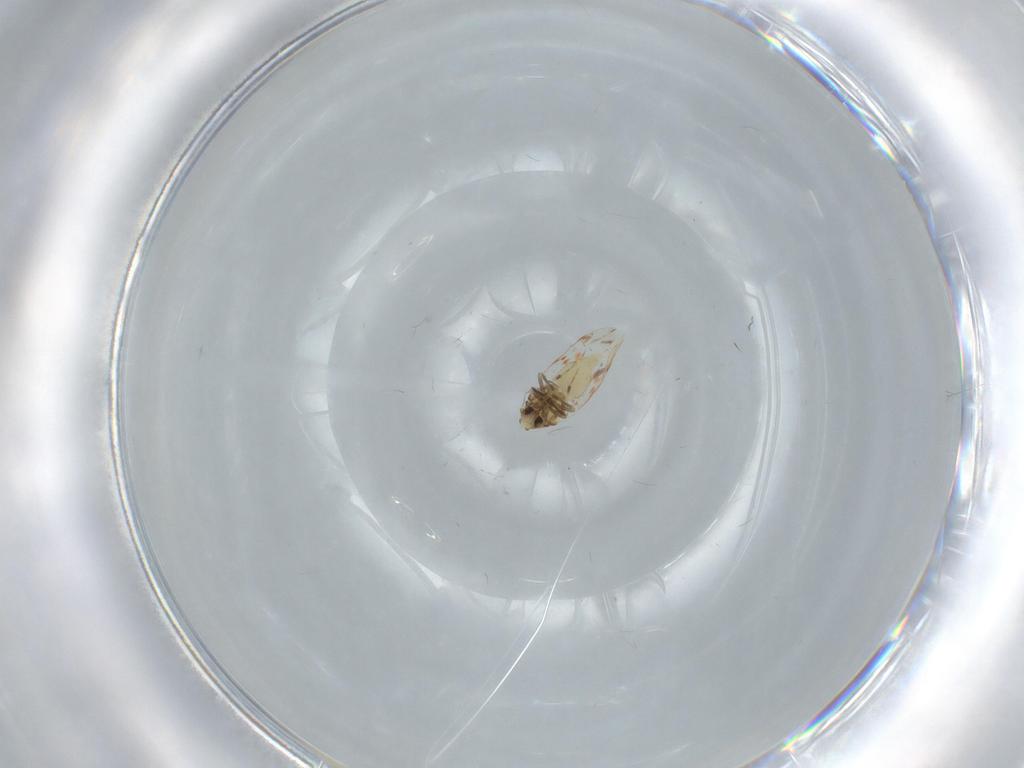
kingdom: Animalia
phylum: Arthropoda
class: Insecta
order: Hemiptera
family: Aleyrodidae
